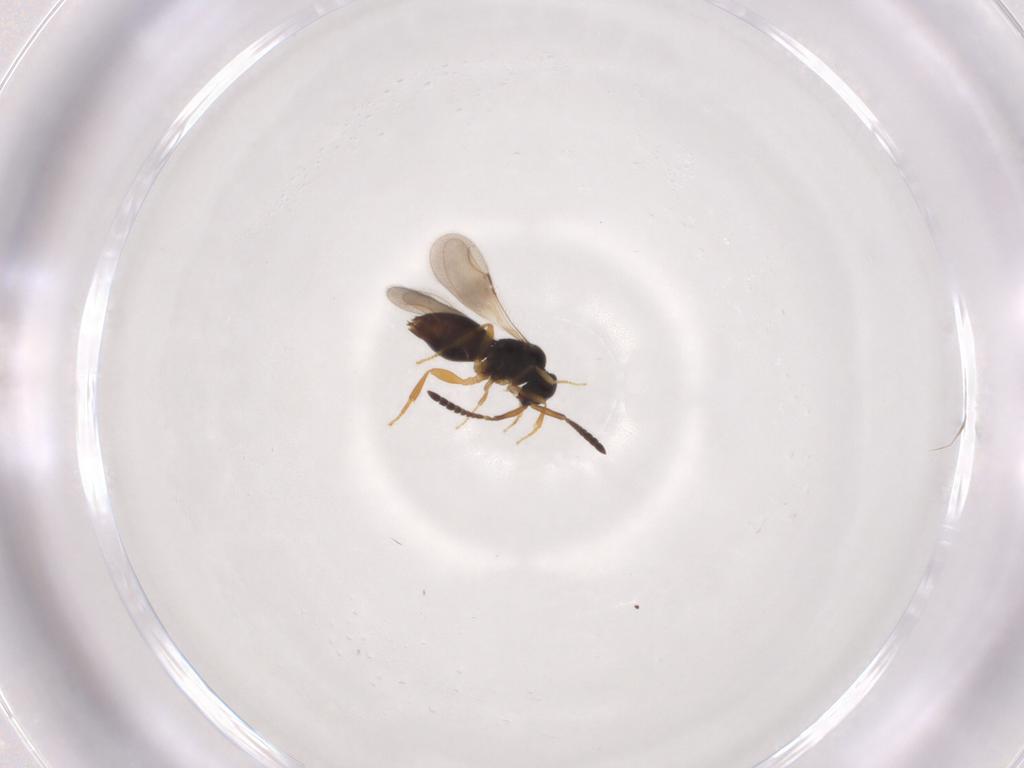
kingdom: Animalia
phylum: Arthropoda
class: Insecta
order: Hymenoptera
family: Ceraphronidae
